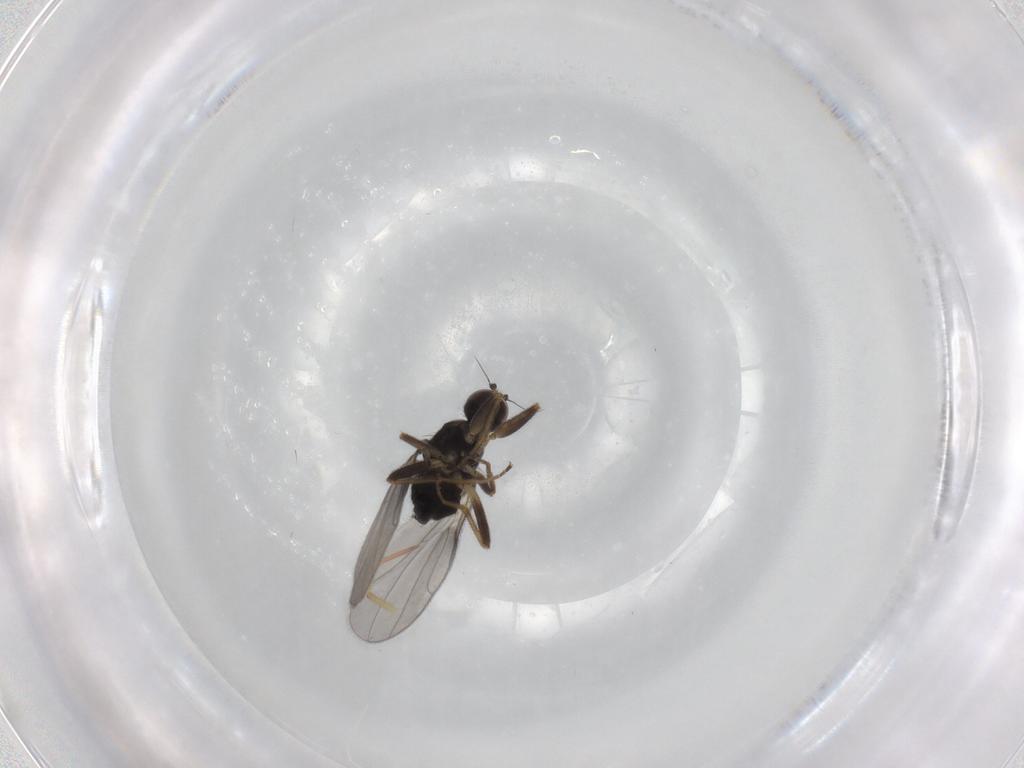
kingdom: Animalia
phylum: Arthropoda
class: Insecta
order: Diptera
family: Hybotidae
